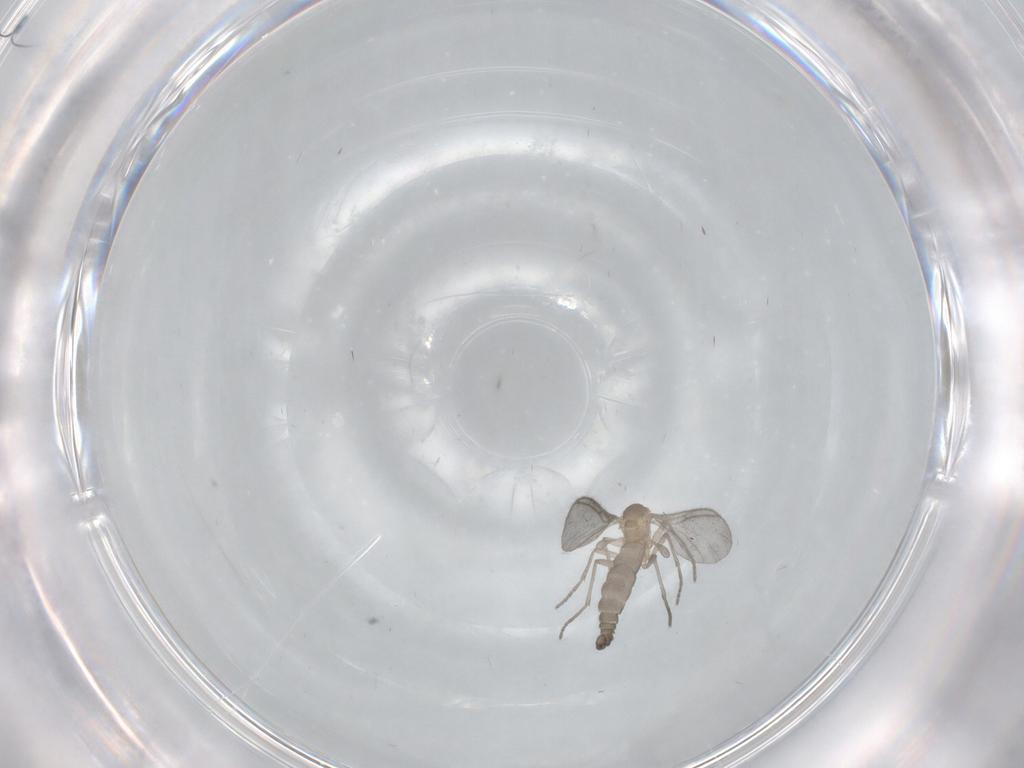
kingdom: Animalia
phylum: Arthropoda
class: Insecta
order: Diptera
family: Sciaridae
